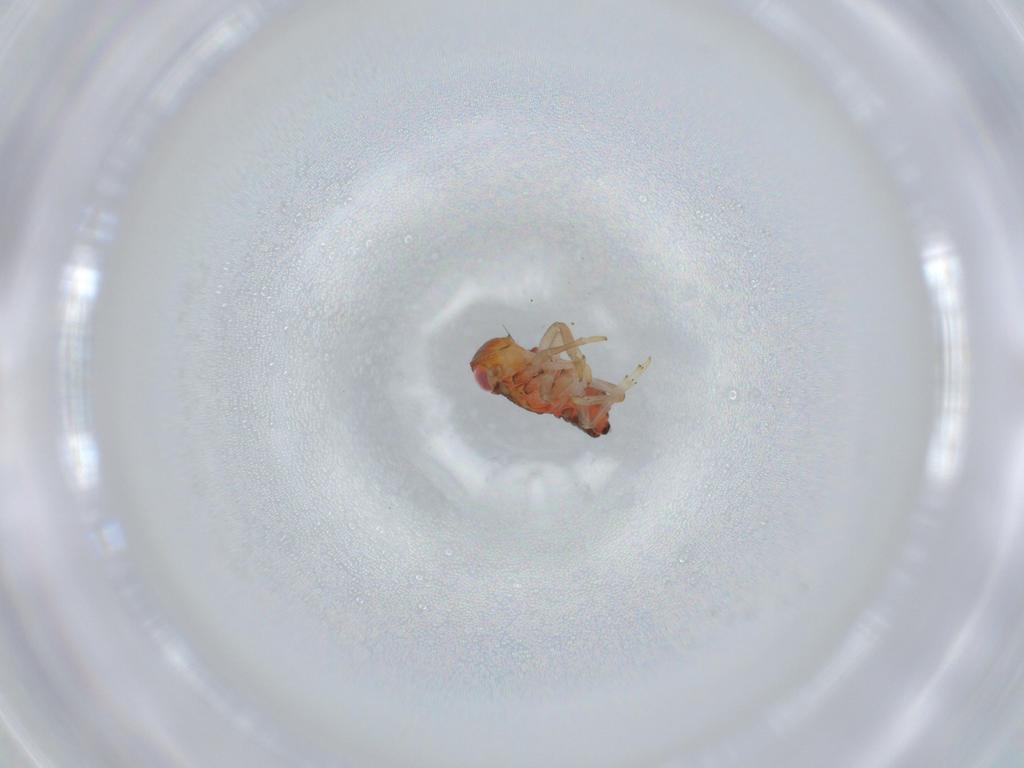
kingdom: Animalia
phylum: Arthropoda
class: Insecta
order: Hemiptera
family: Issidae
